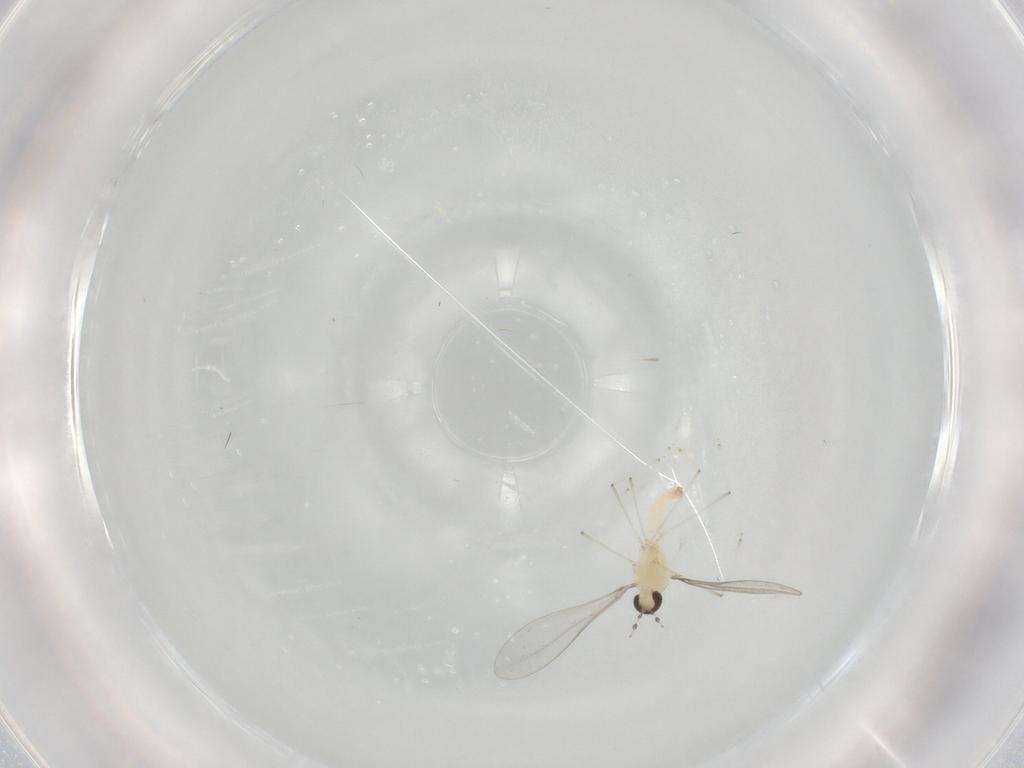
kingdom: Animalia
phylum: Arthropoda
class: Insecta
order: Diptera
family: Cecidomyiidae
